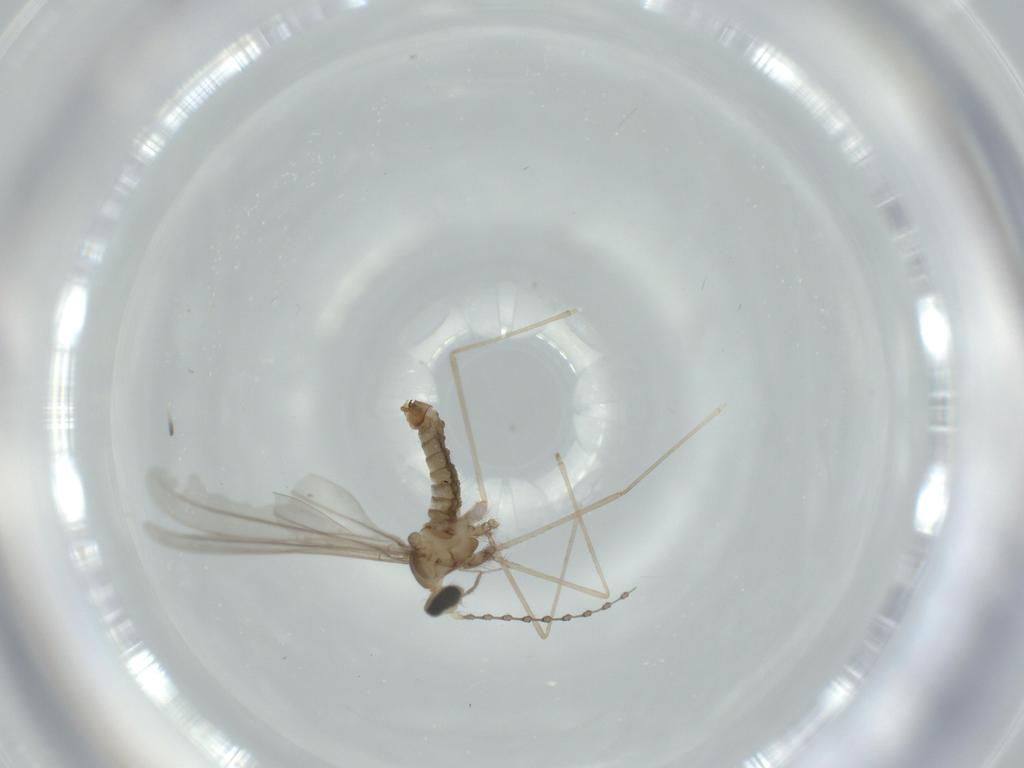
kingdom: Animalia
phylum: Arthropoda
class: Insecta
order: Diptera
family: Cecidomyiidae
